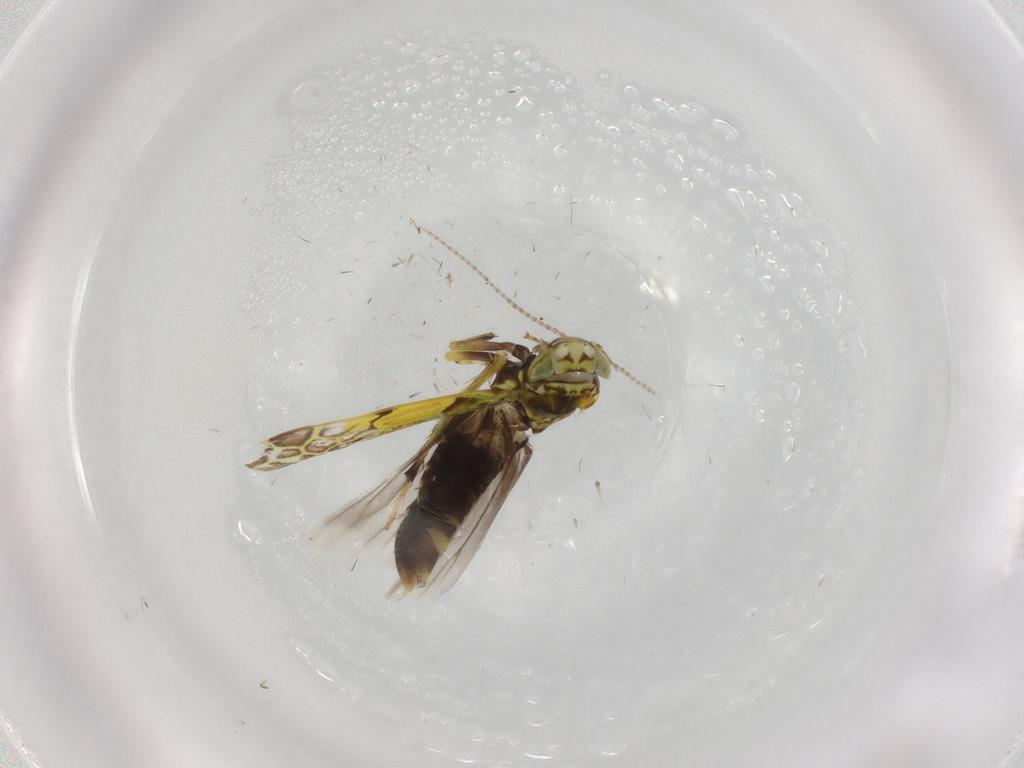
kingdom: Animalia
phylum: Arthropoda
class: Insecta
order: Hemiptera
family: Cicadellidae
